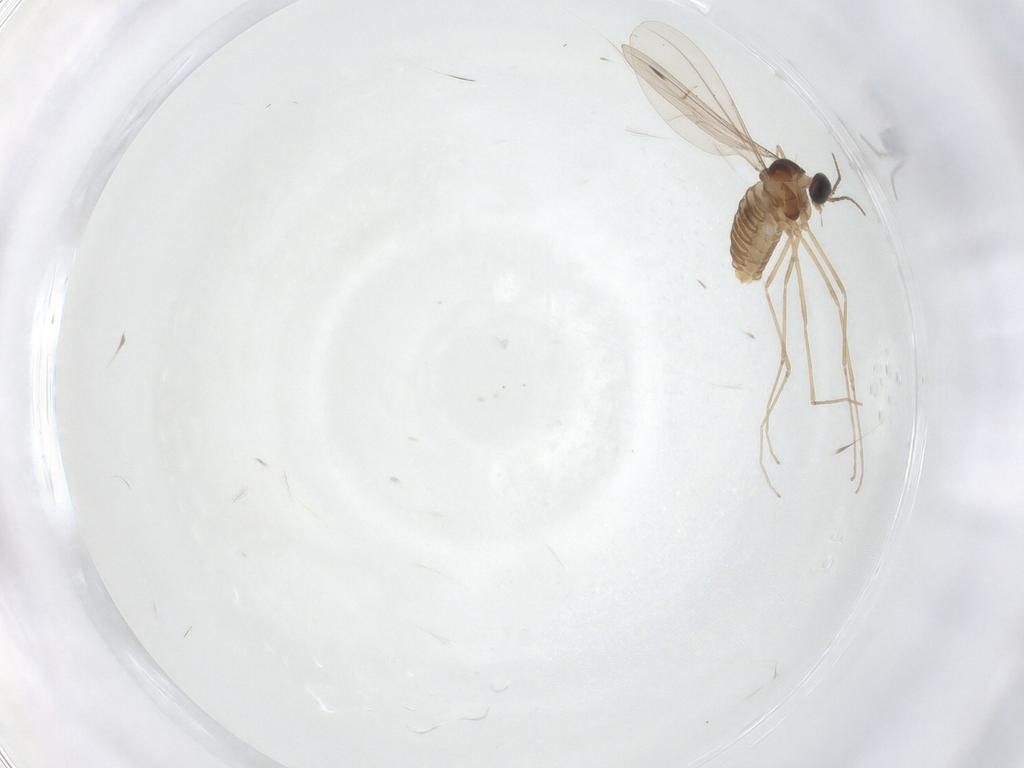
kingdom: Animalia
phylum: Arthropoda
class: Insecta
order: Diptera
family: Cecidomyiidae
